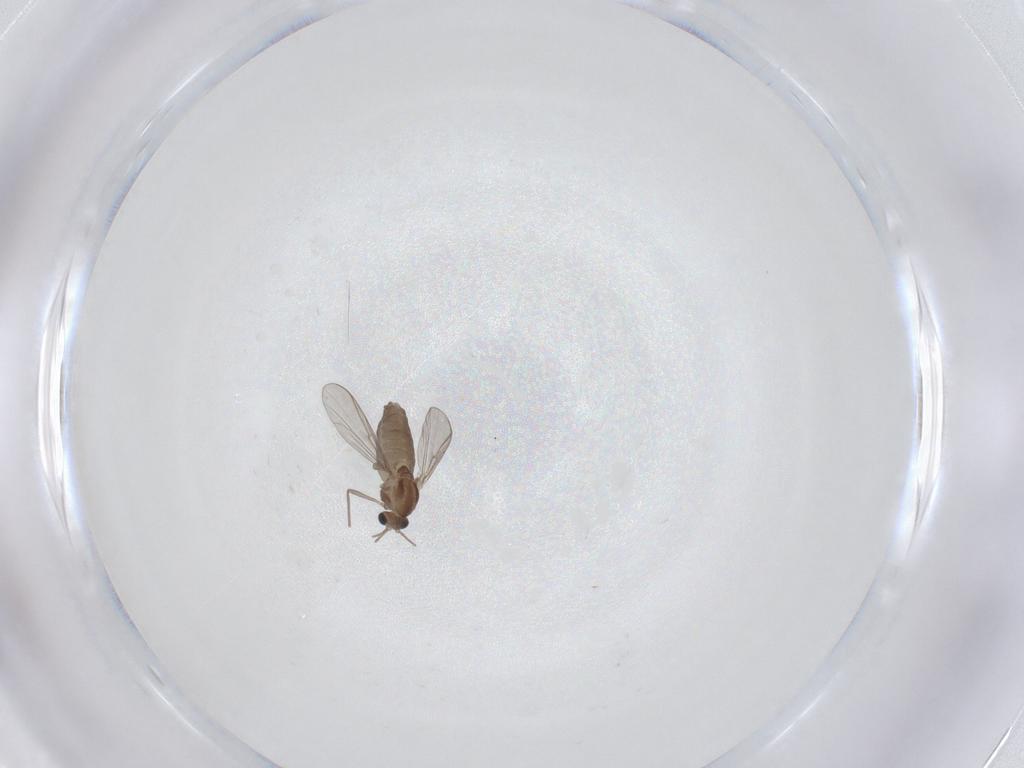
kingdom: Animalia
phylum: Arthropoda
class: Insecta
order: Diptera
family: Chironomidae
